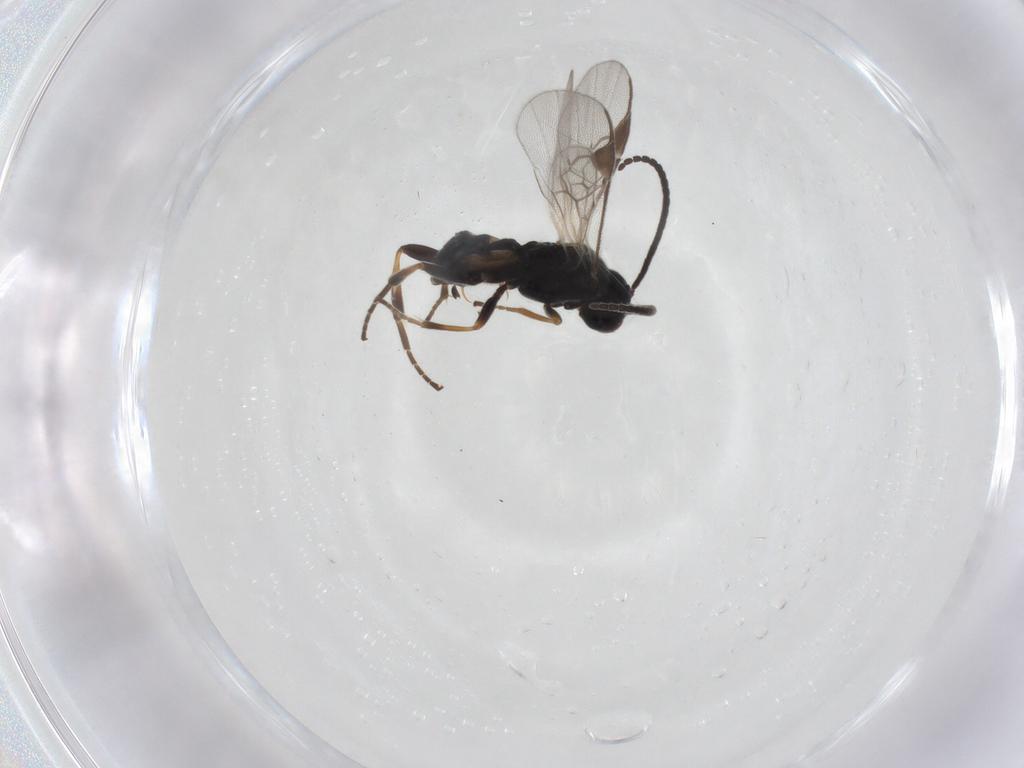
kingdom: Animalia
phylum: Arthropoda
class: Insecta
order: Hymenoptera
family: Braconidae
